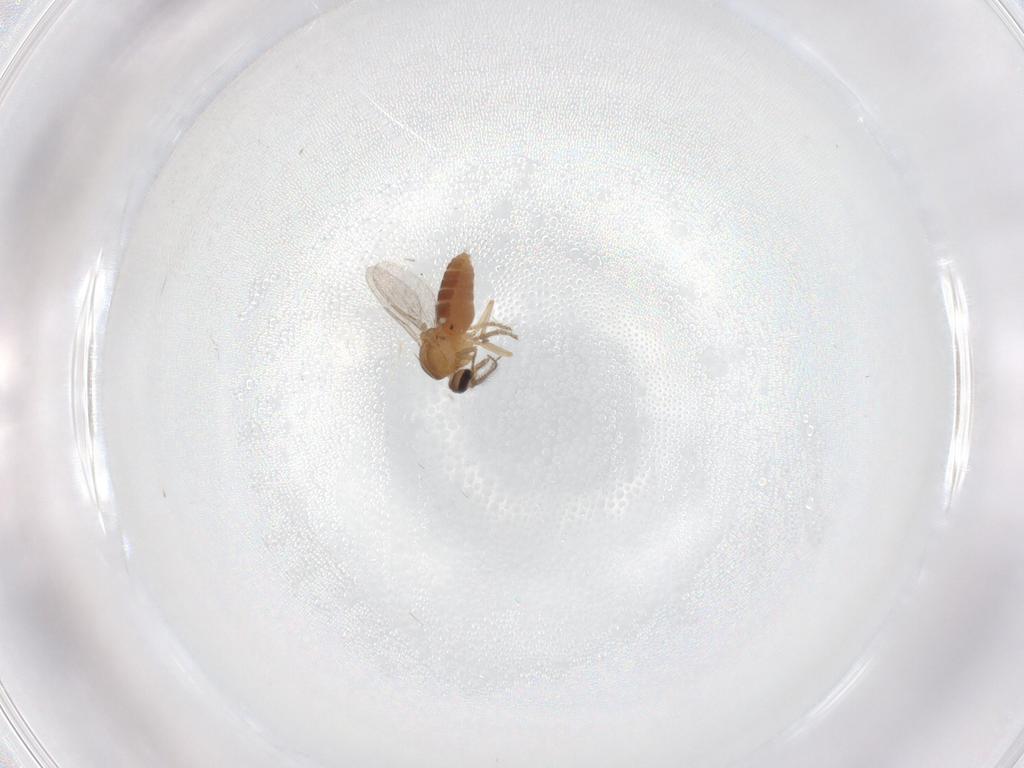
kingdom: Animalia
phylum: Arthropoda
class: Insecta
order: Diptera
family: Ceratopogonidae
